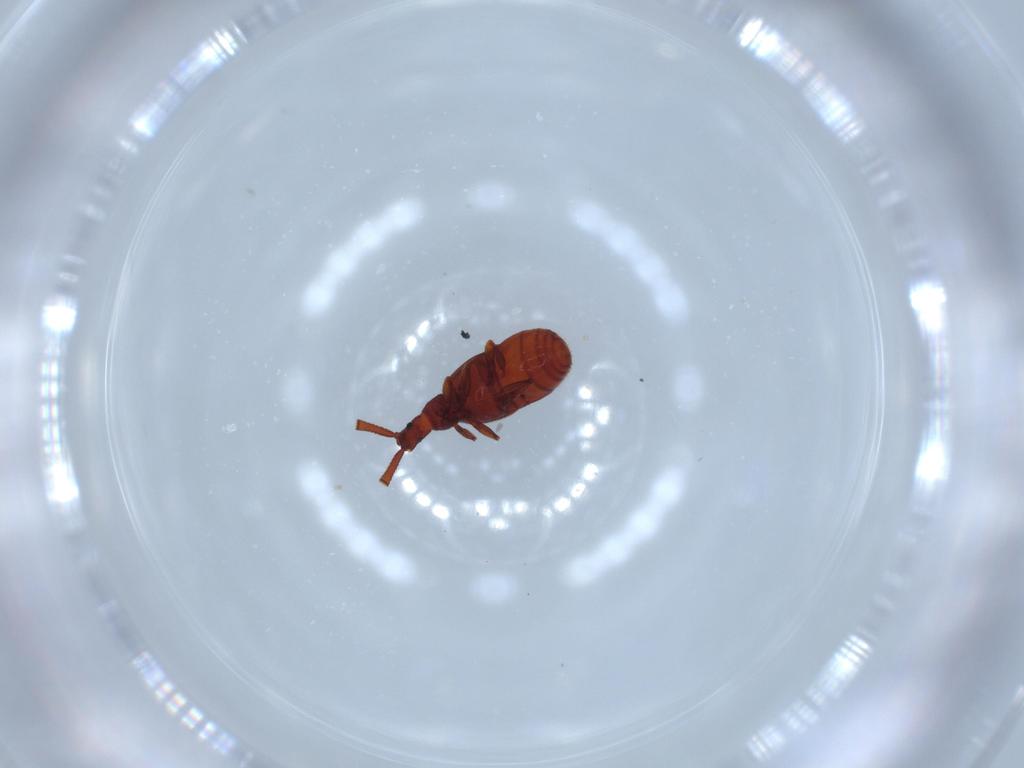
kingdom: Animalia
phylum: Arthropoda
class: Insecta
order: Coleoptera
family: Staphylinidae
